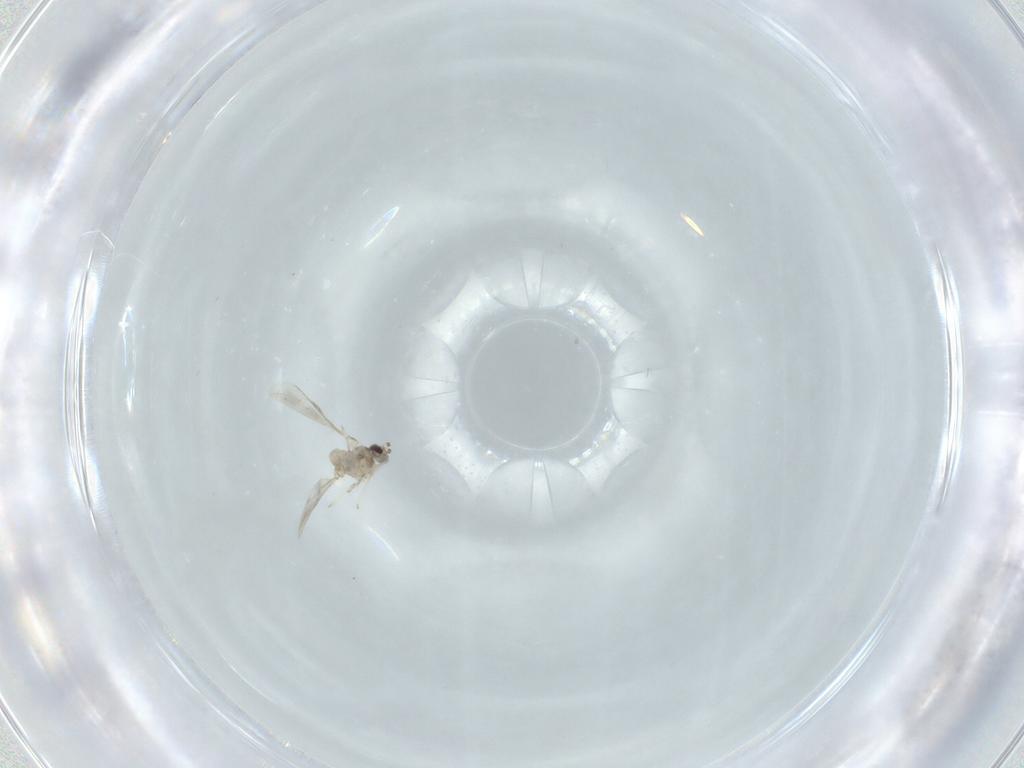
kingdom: Animalia
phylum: Arthropoda
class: Insecta
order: Diptera
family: Cecidomyiidae
